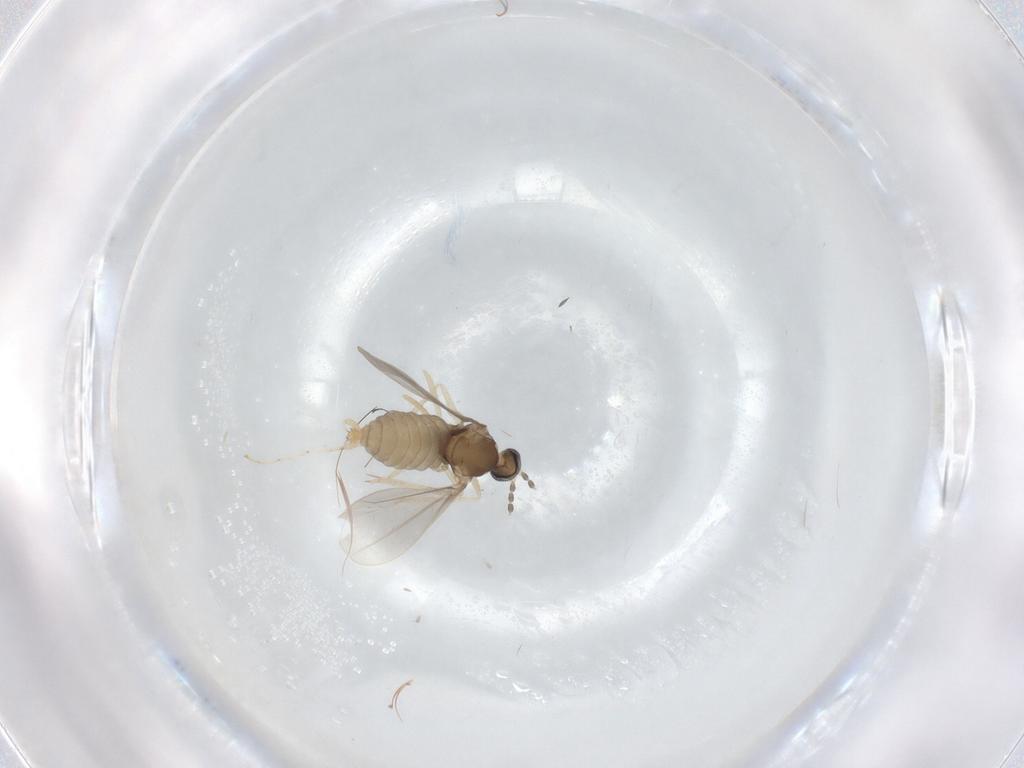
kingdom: Animalia
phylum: Arthropoda
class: Insecta
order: Diptera
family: Cecidomyiidae
